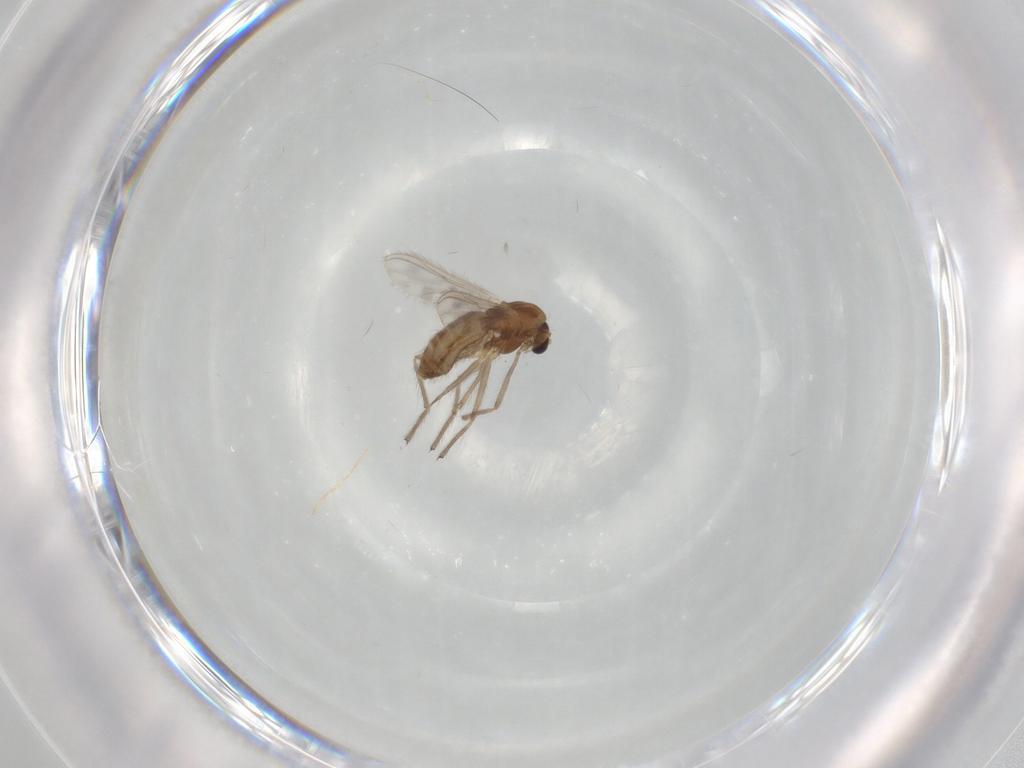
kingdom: Animalia
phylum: Arthropoda
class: Insecta
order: Diptera
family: Chironomidae
